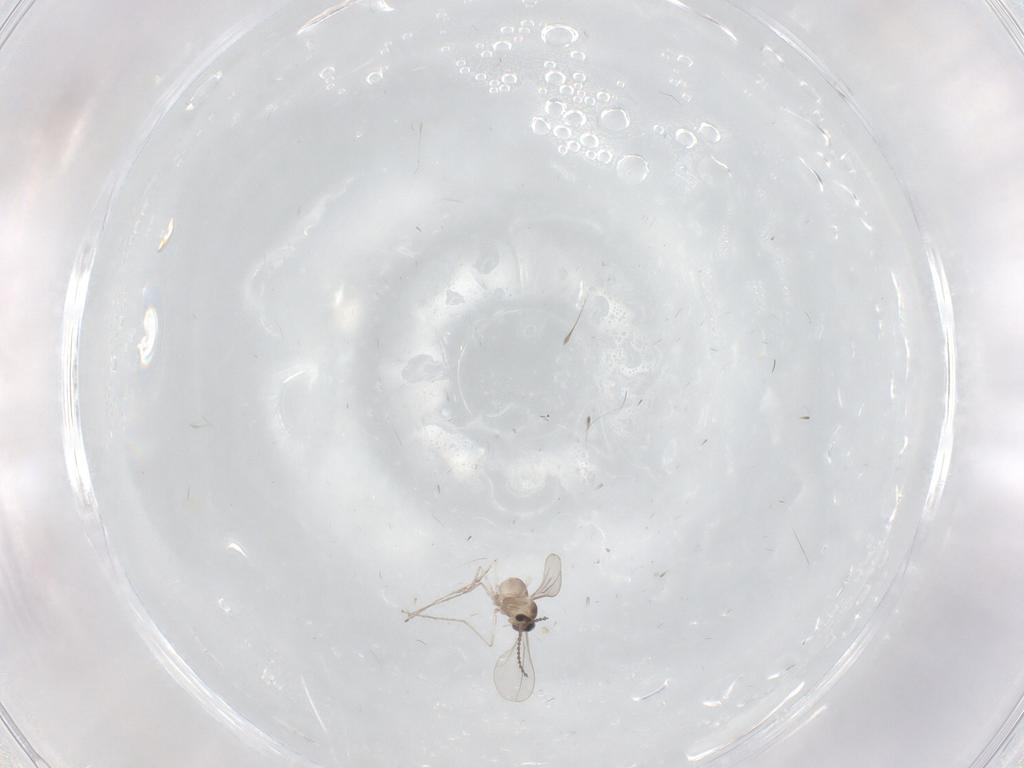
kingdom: Animalia
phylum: Arthropoda
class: Insecta
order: Diptera
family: Cecidomyiidae
